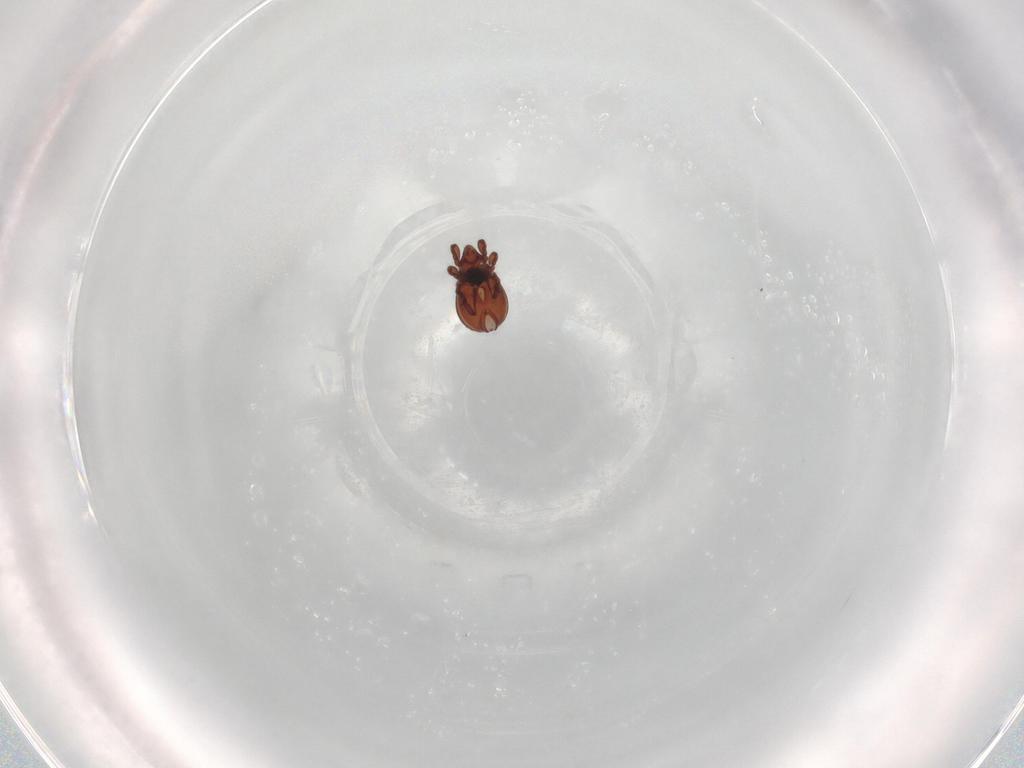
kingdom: Animalia
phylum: Arthropoda
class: Arachnida
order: Sarcoptiformes
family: Eremaeidae
